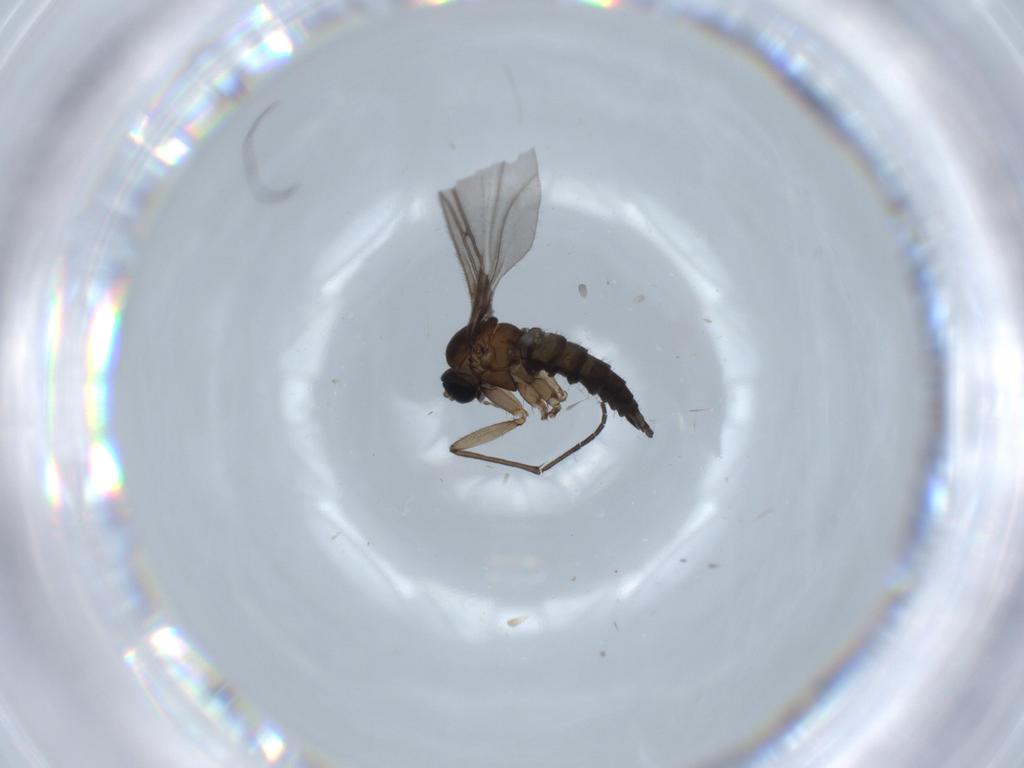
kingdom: Animalia
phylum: Arthropoda
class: Insecta
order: Diptera
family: Sciaridae
